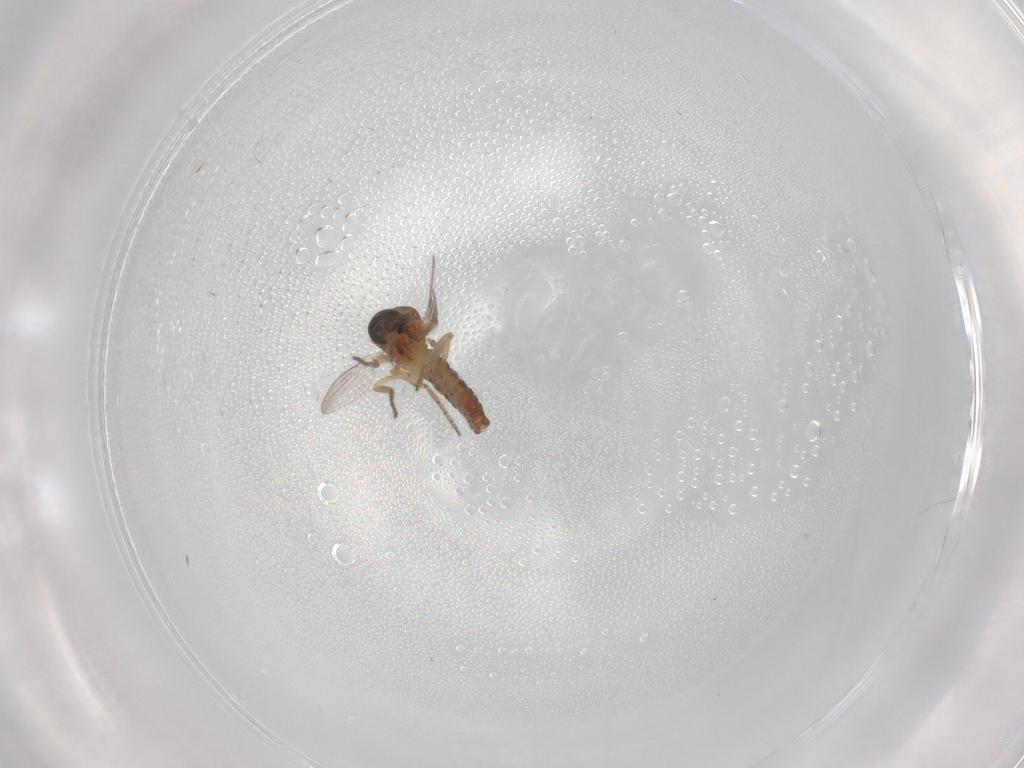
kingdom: Animalia
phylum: Arthropoda
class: Insecta
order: Diptera
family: Ceratopogonidae
